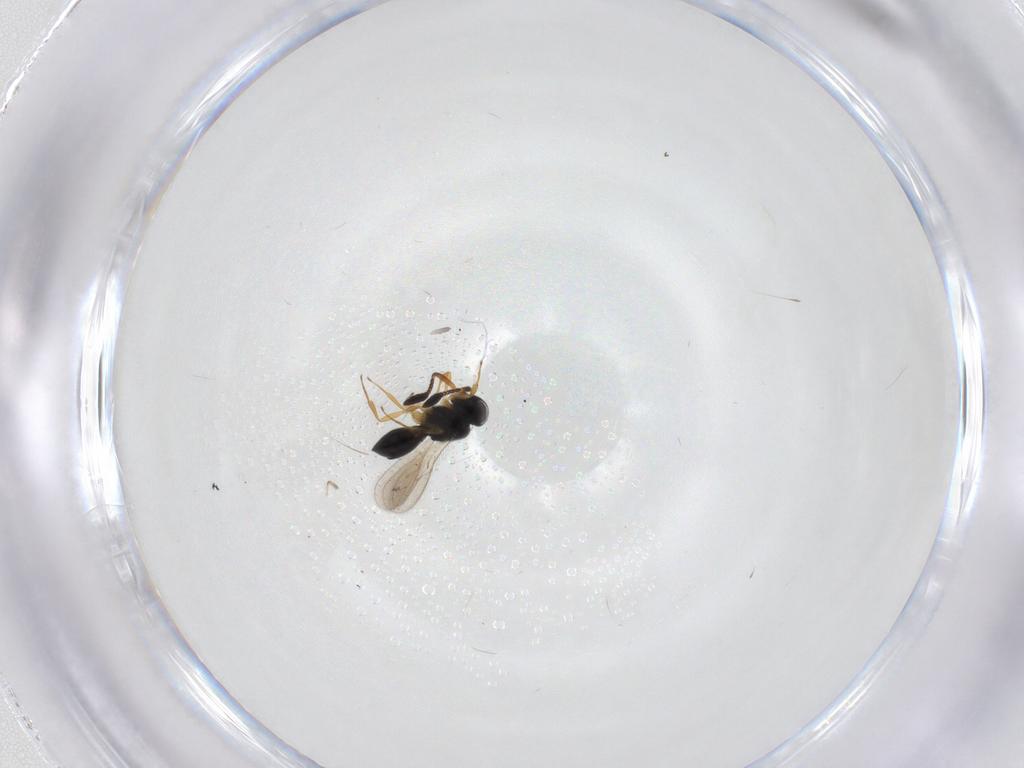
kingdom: Animalia
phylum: Arthropoda
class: Insecta
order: Hymenoptera
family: Scelionidae
